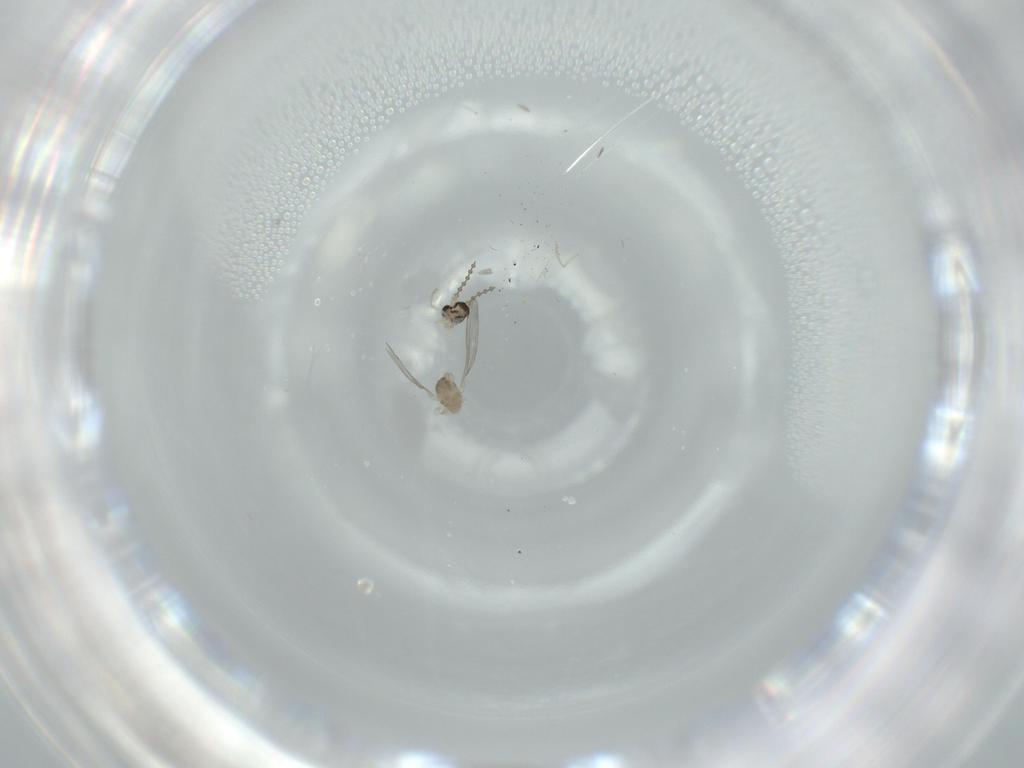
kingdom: Animalia
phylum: Arthropoda
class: Insecta
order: Diptera
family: Cecidomyiidae
